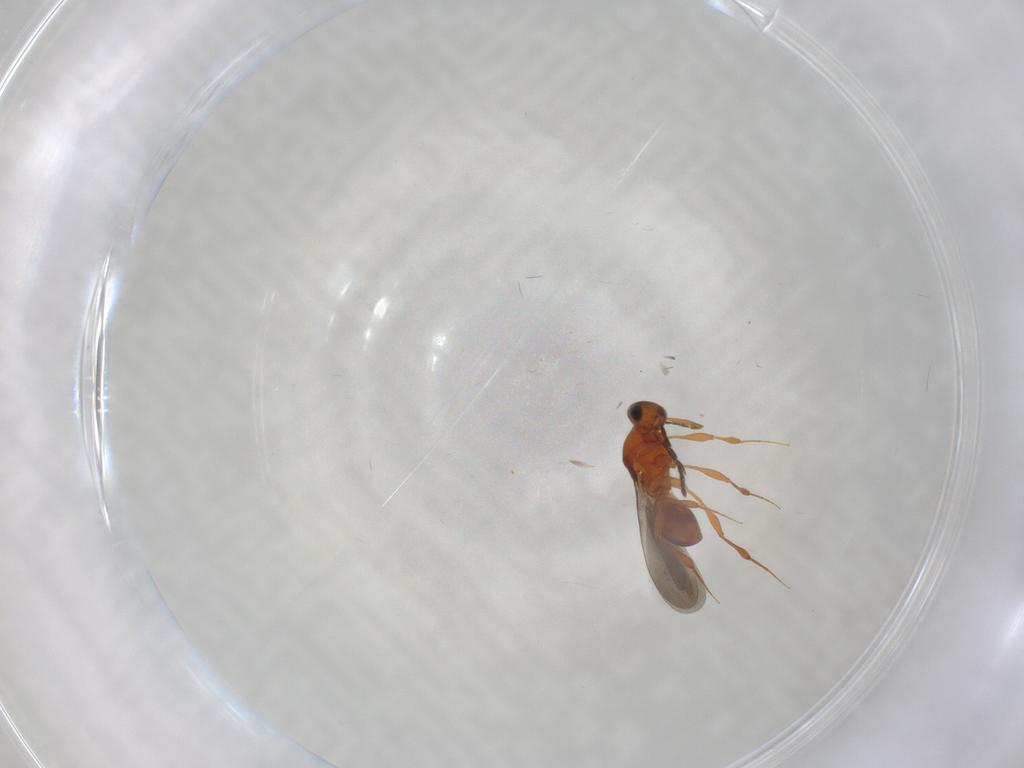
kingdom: Animalia
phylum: Arthropoda
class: Insecta
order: Hymenoptera
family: Platygastridae
